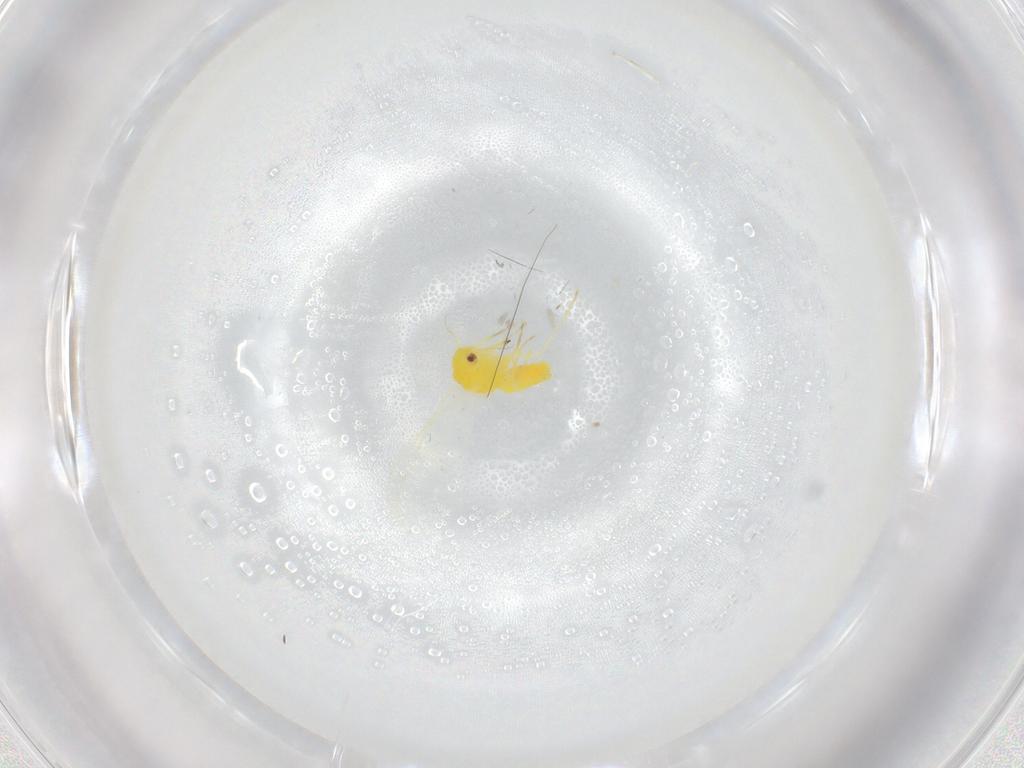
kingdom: Animalia
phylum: Arthropoda
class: Insecta
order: Hemiptera
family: Aleyrodidae
